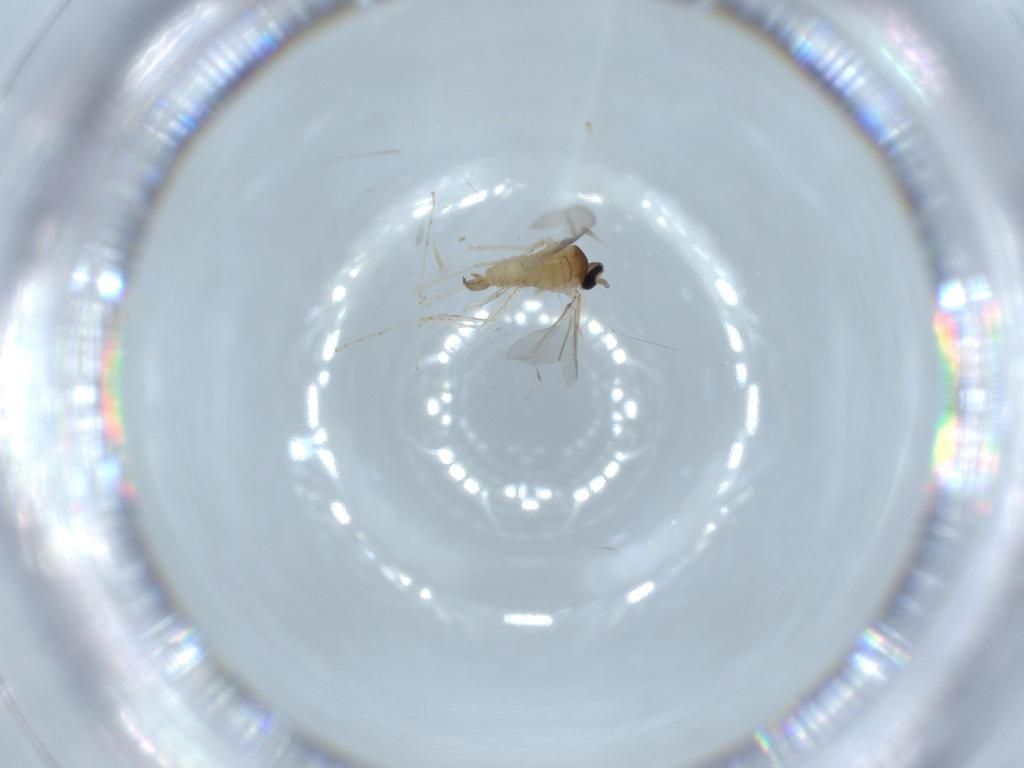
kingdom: Animalia
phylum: Arthropoda
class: Insecta
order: Diptera
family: Cecidomyiidae
